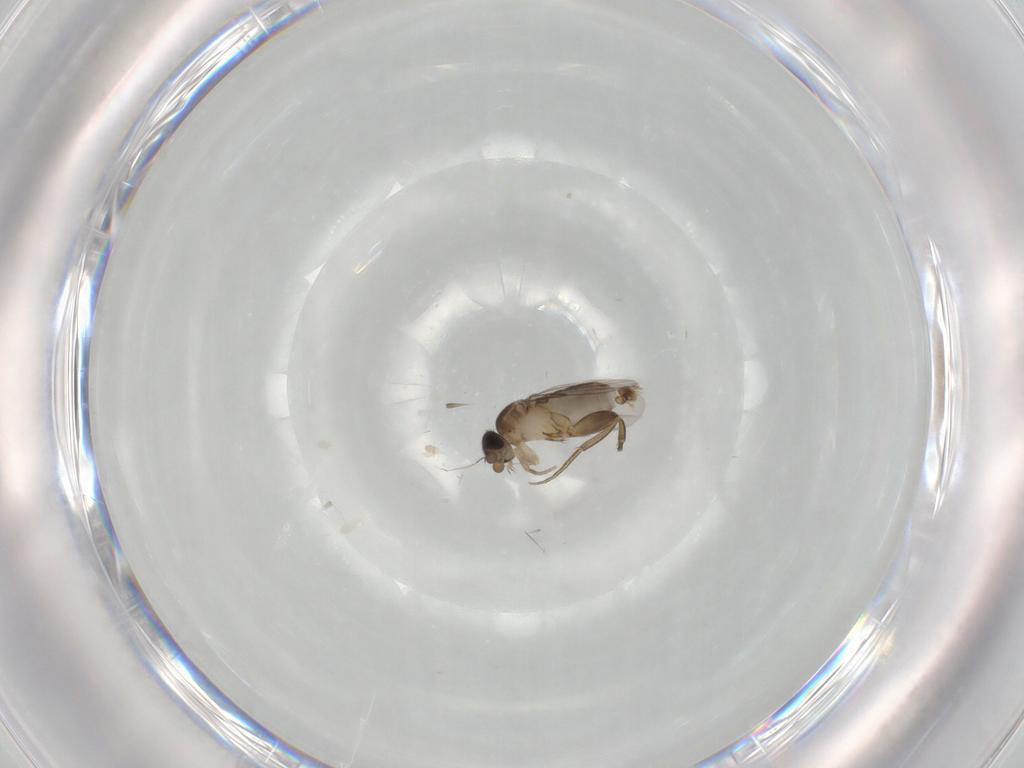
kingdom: Animalia
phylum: Arthropoda
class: Insecta
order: Diptera
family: Phoridae
